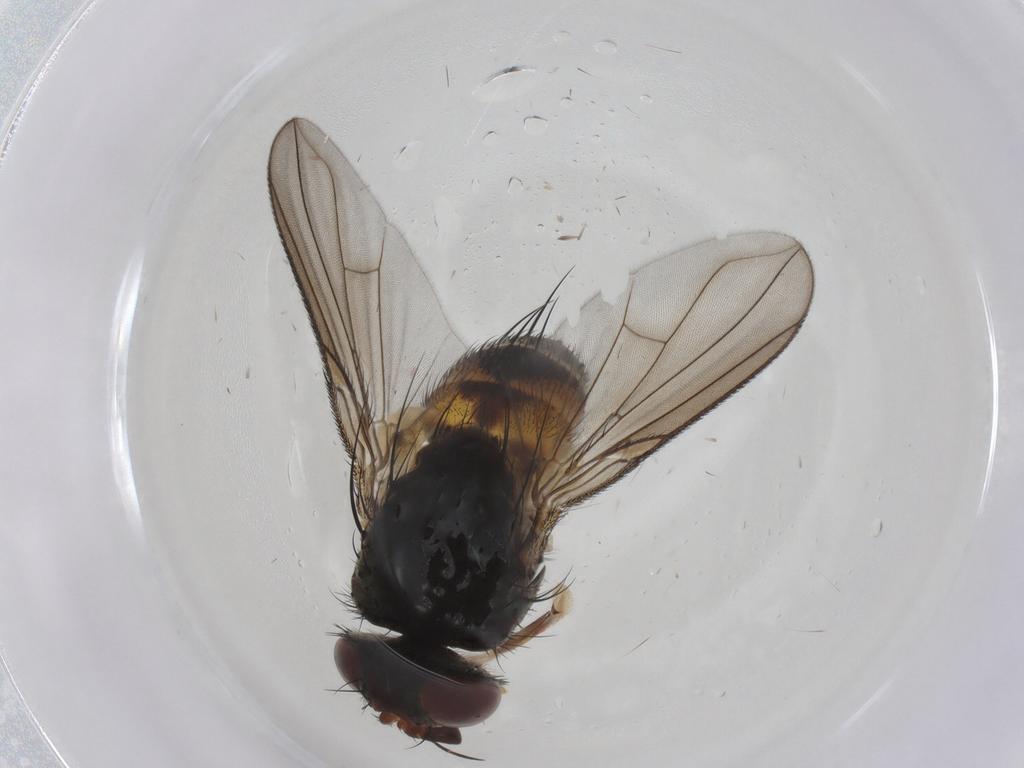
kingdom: Animalia
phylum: Arthropoda
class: Insecta
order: Diptera
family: Tachinidae
